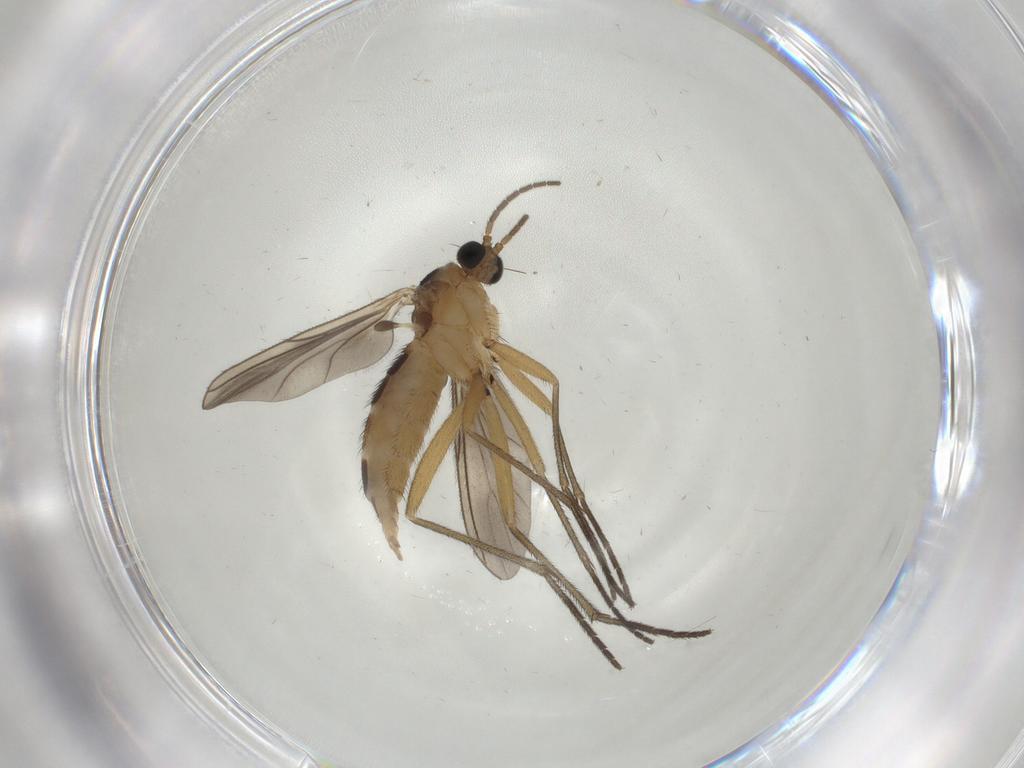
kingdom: Animalia
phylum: Arthropoda
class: Insecta
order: Diptera
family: Sciaridae
